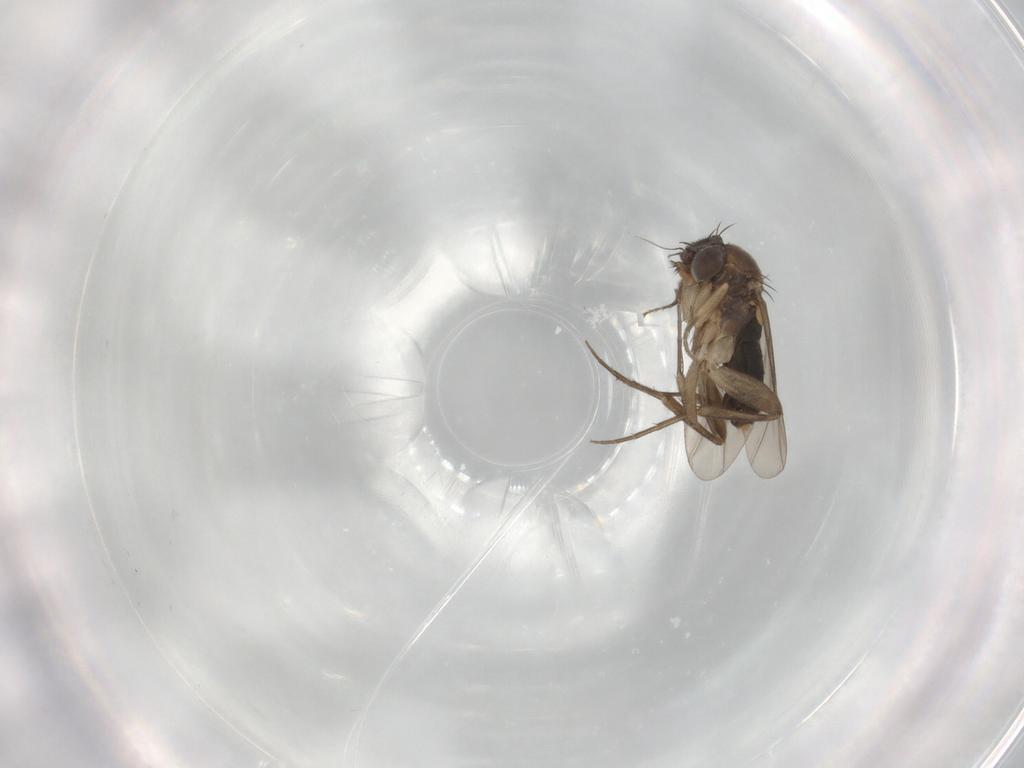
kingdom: Animalia
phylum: Arthropoda
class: Insecta
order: Diptera
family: Phoridae
